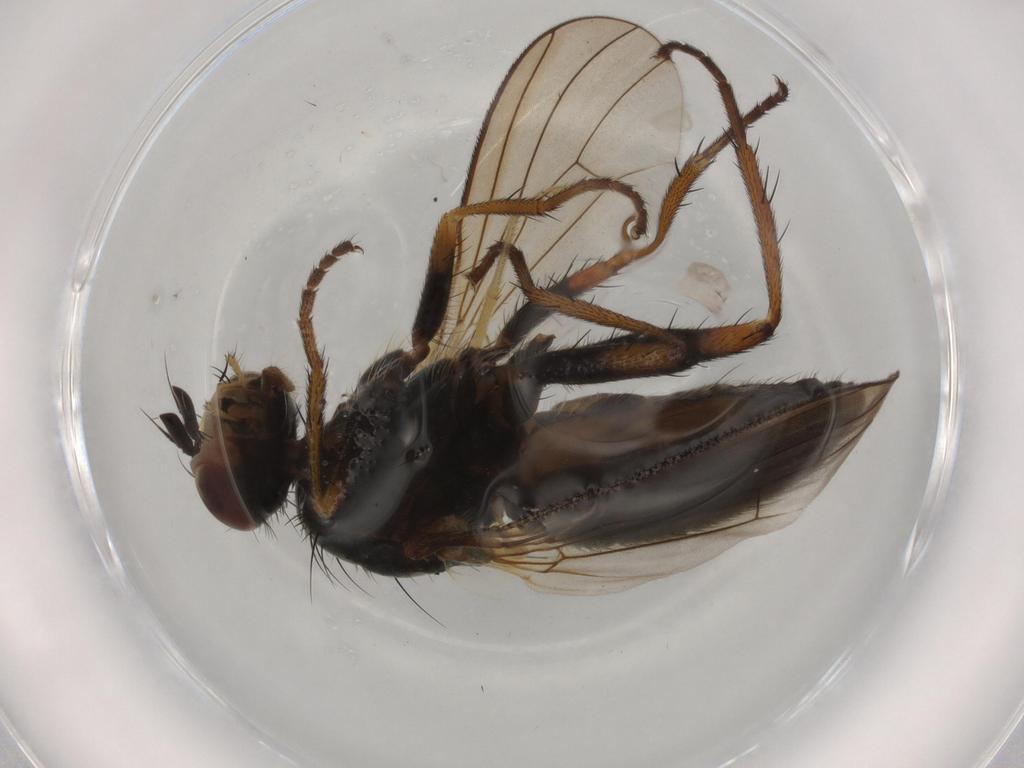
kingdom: Animalia
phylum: Arthropoda
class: Insecta
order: Diptera
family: Scathophagidae
